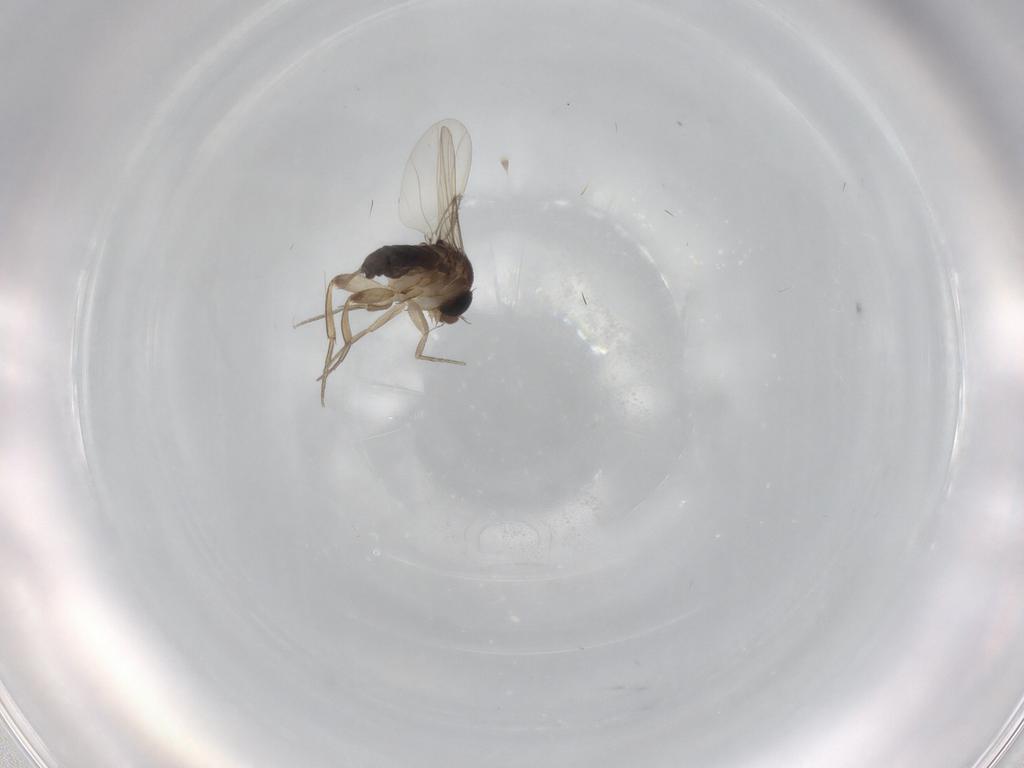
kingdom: Animalia
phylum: Arthropoda
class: Insecta
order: Diptera
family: Phoridae
